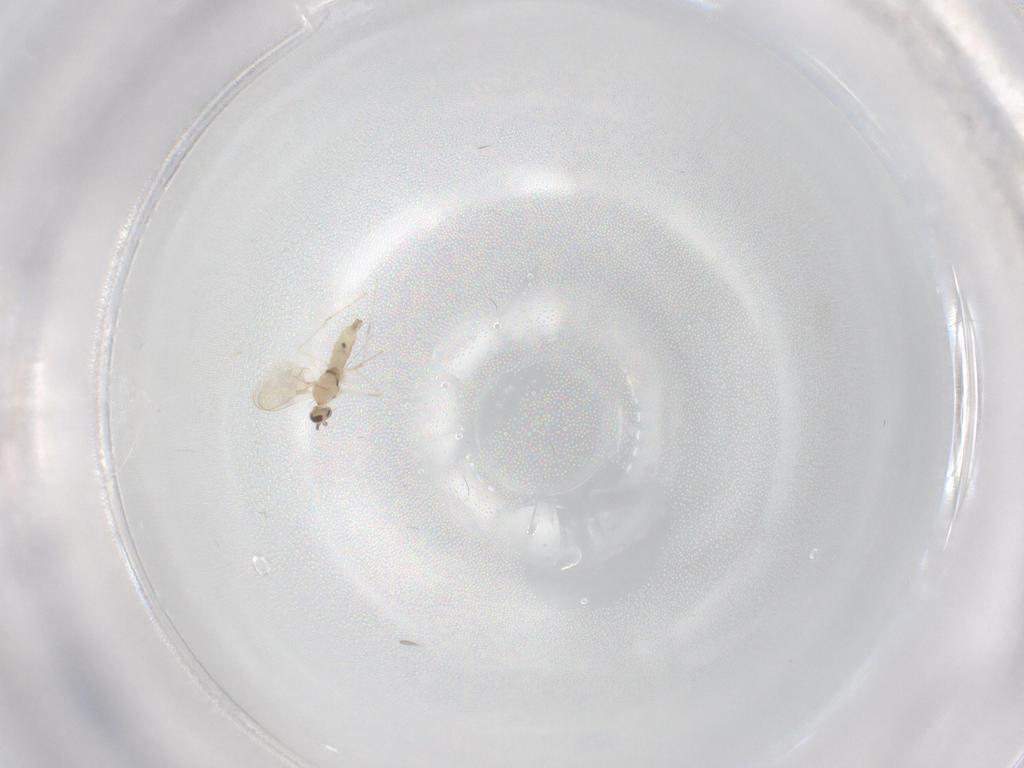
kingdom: Animalia
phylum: Arthropoda
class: Insecta
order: Diptera
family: Cecidomyiidae
